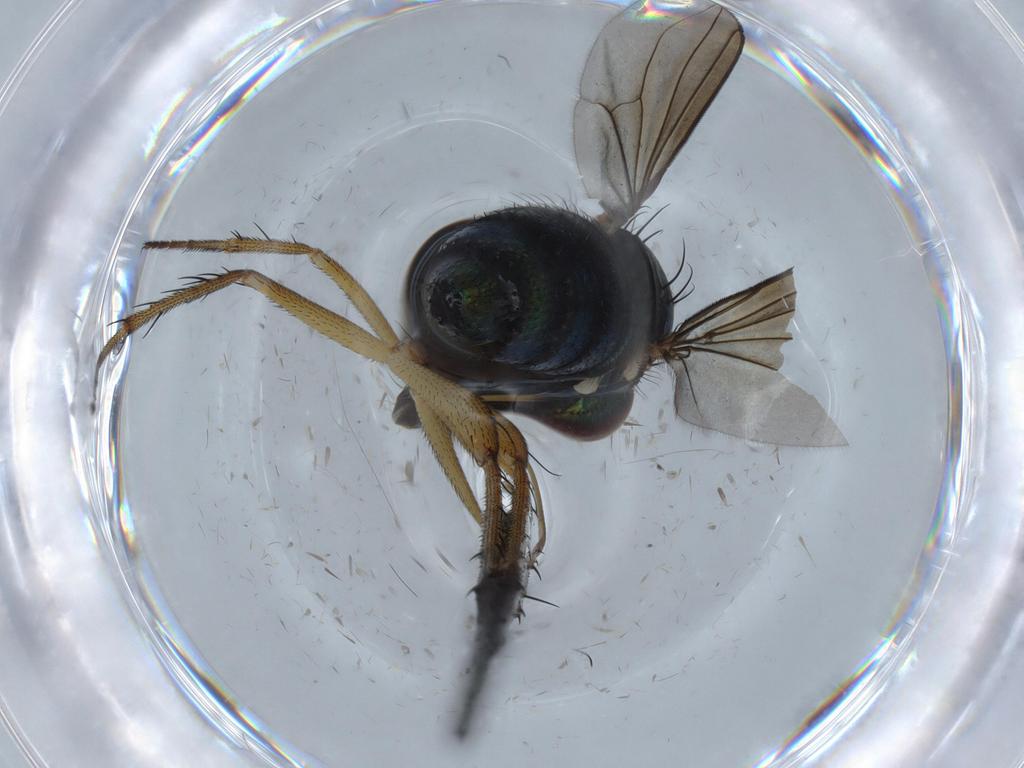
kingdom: Animalia
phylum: Arthropoda
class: Insecta
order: Diptera
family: Dolichopodidae
